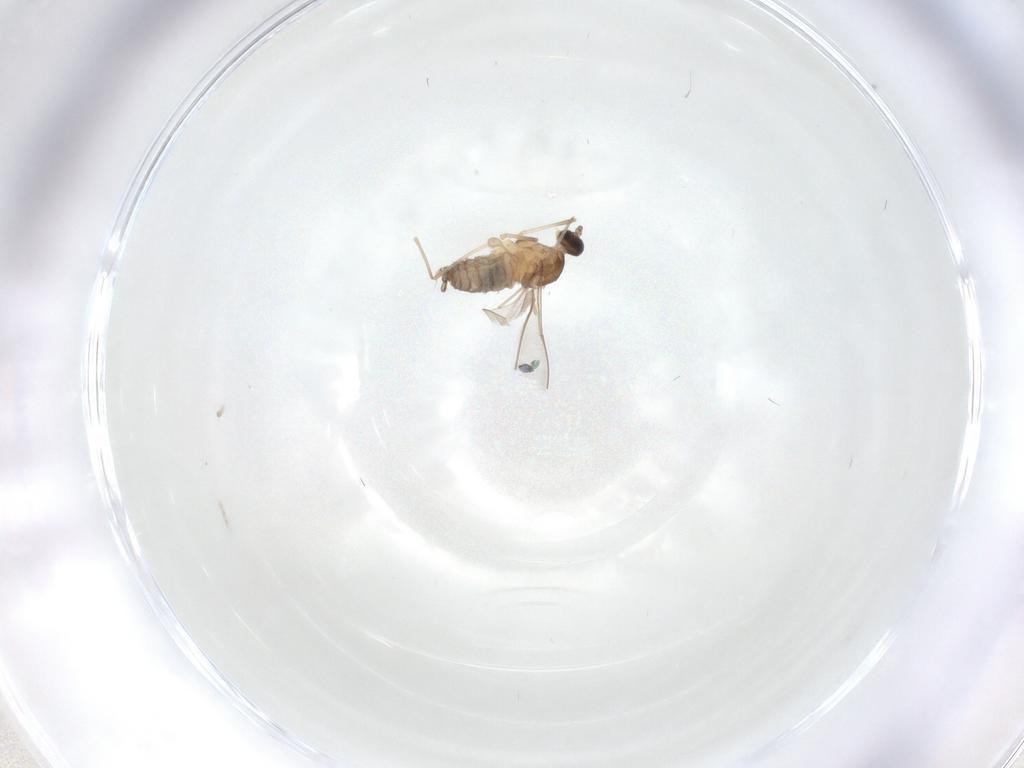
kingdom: Animalia
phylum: Arthropoda
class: Insecta
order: Diptera
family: Cecidomyiidae
